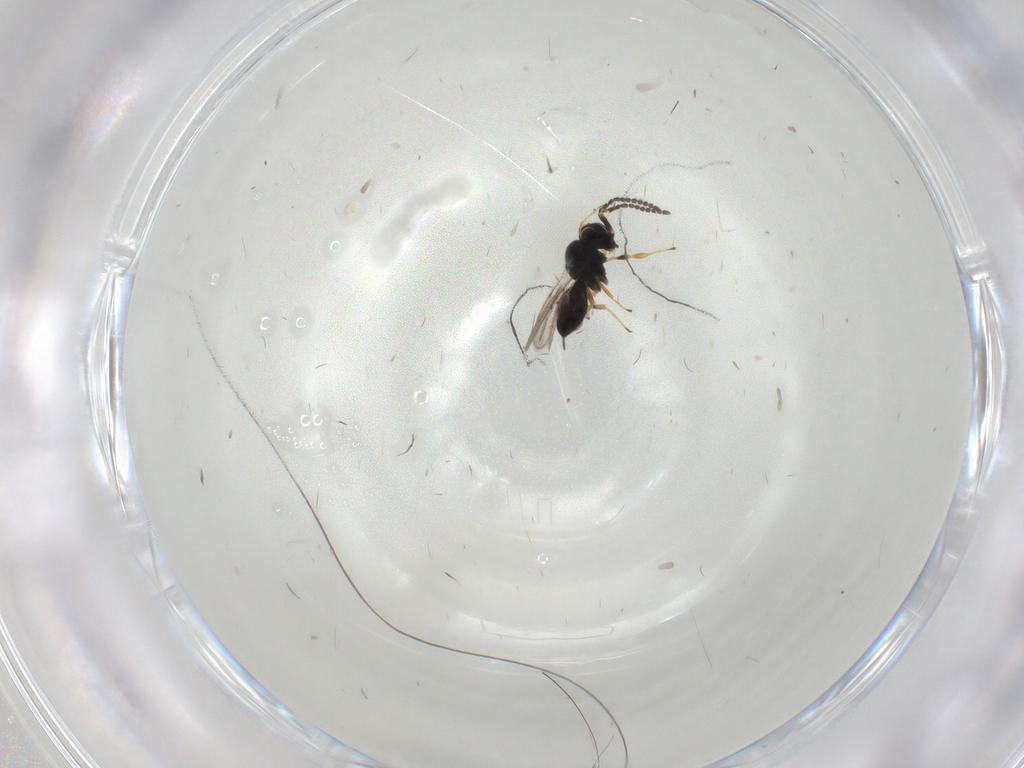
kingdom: Animalia
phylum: Arthropoda
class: Insecta
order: Hymenoptera
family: Scelionidae
